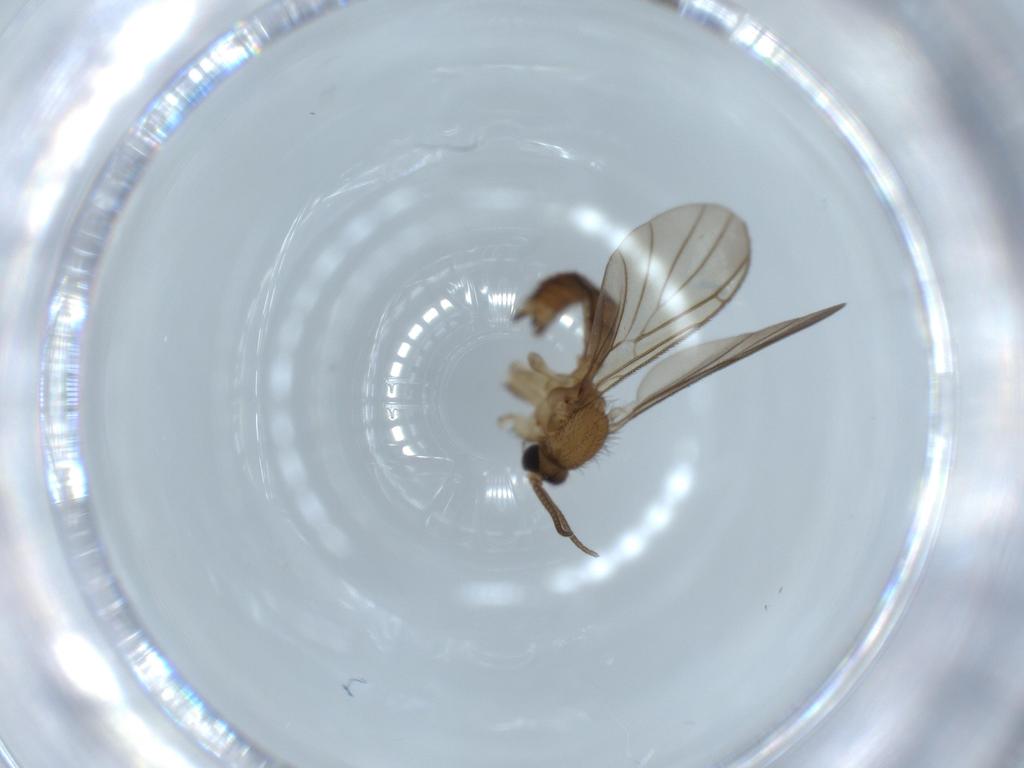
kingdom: Animalia
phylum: Arthropoda
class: Insecta
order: Diptera
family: Keroplatidae
